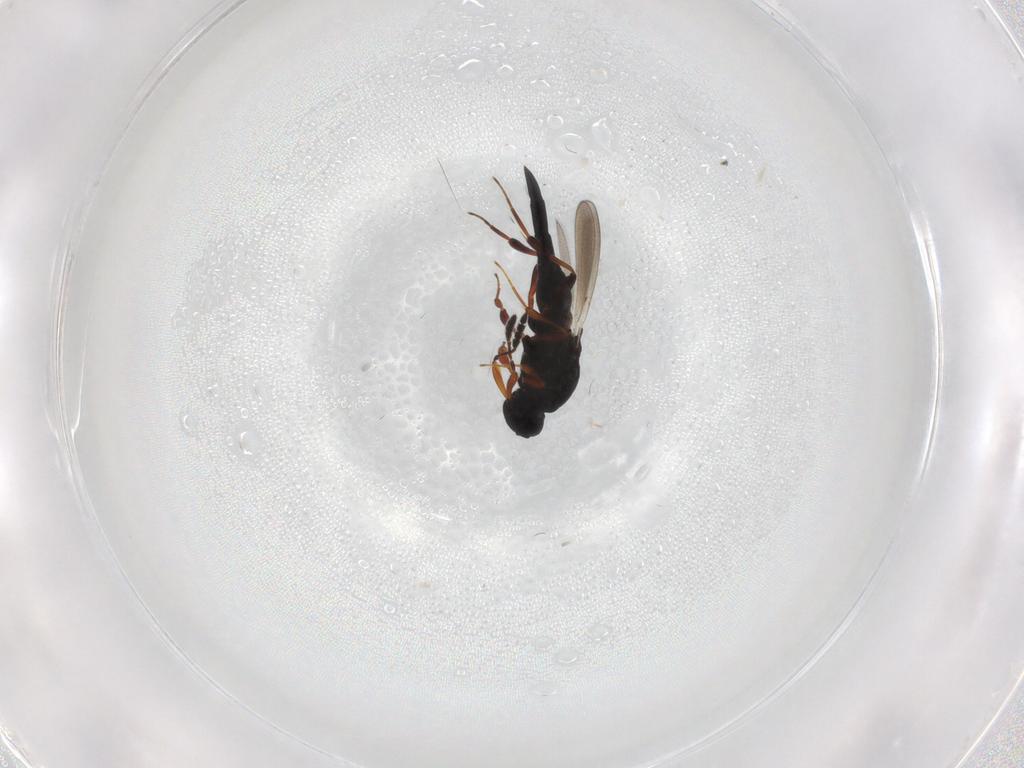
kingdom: Animalia
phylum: Arthropoda
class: Insecta
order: Hymenoptera
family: Platygastridae
